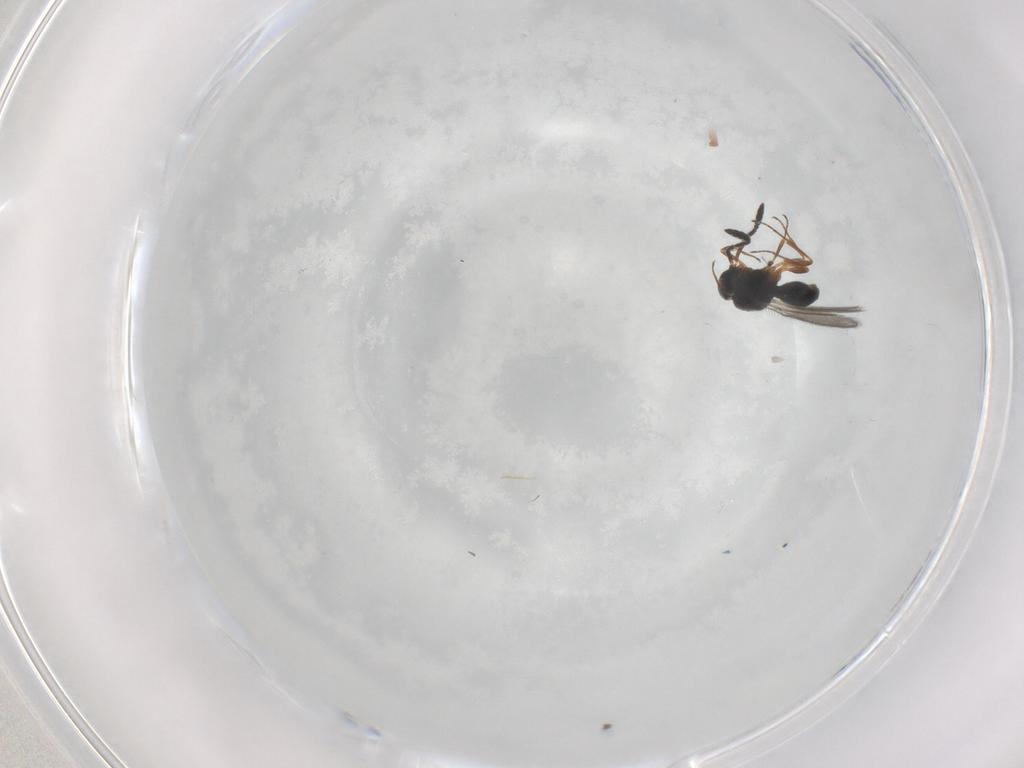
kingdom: Animalia
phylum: Arthropoda
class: Insecta
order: Hymenoptera
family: Scelionidae
